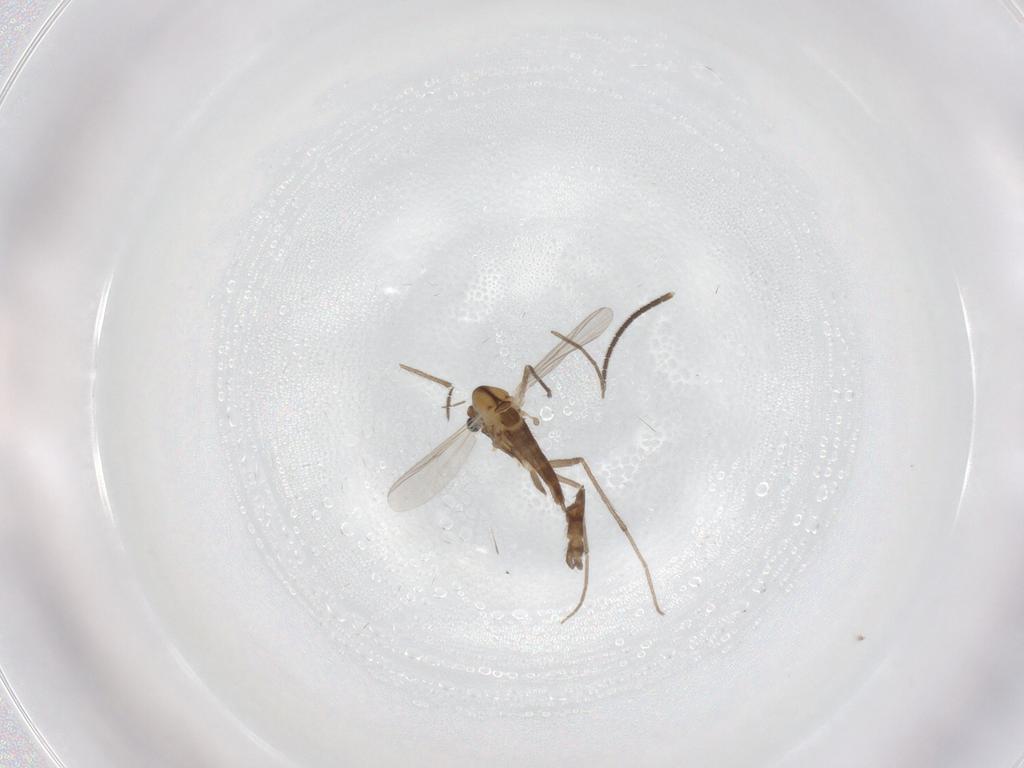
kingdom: Animalia
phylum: Arthropoda
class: Insecta
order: Diptera
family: Chironomidae
